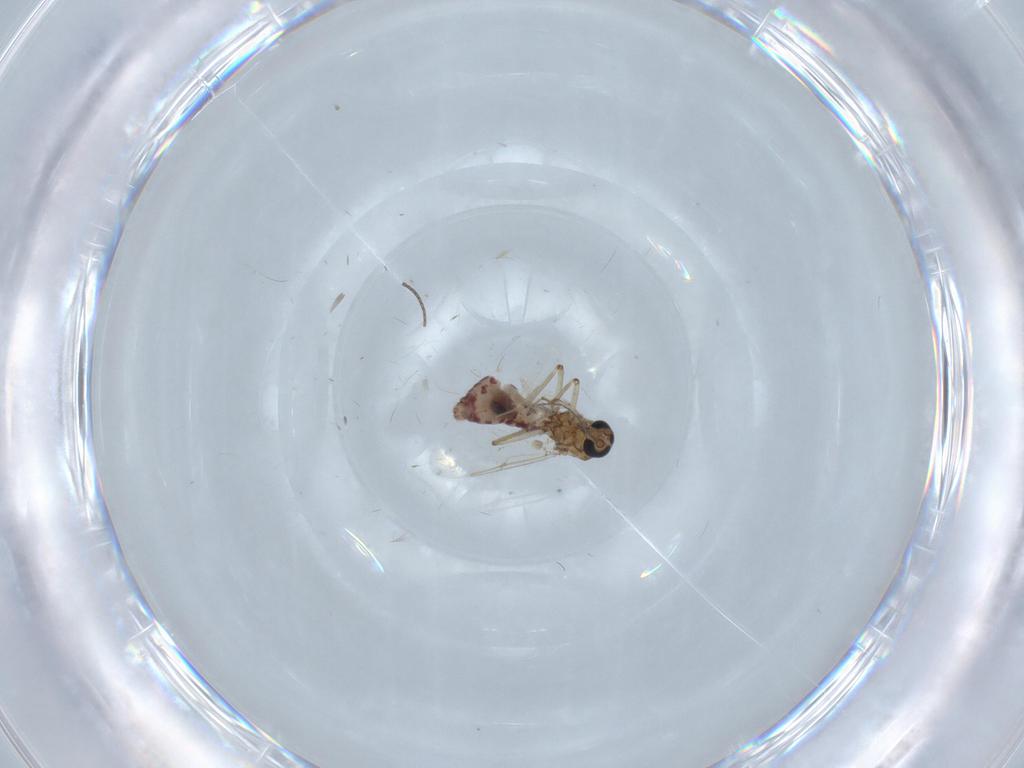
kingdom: Animalia
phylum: Arthropoda
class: Insecta
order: Diptera
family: Ceratopogonidae
